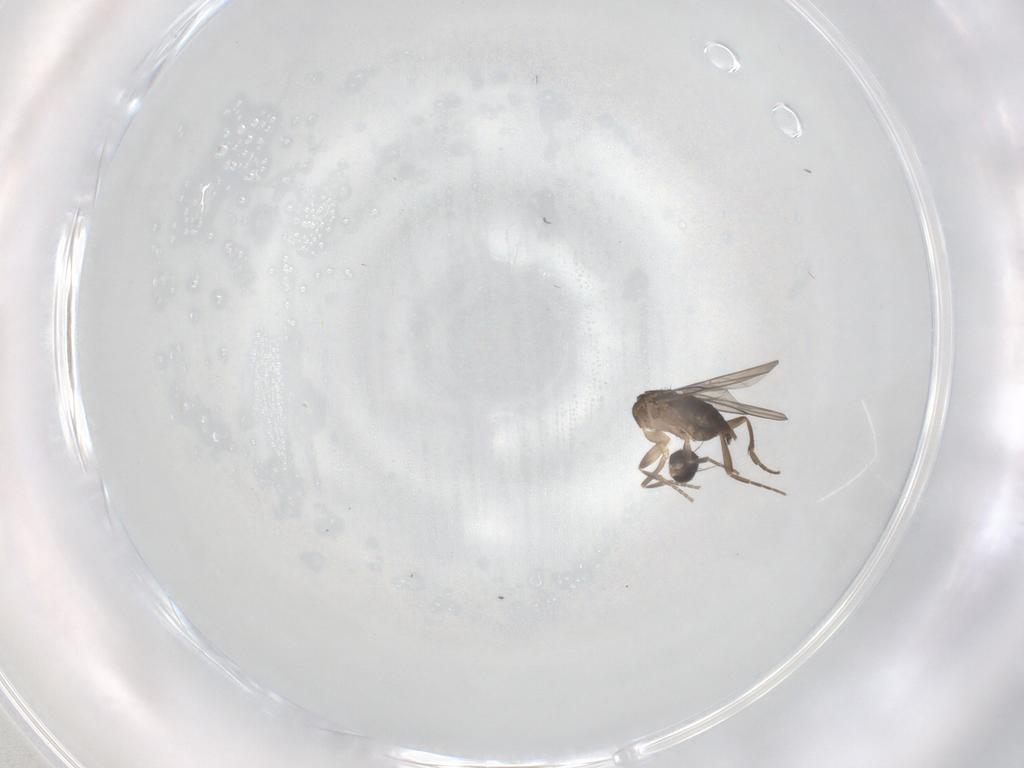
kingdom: Animalia
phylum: Arthropoda
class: Insecta
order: Diptera
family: Phoridae
